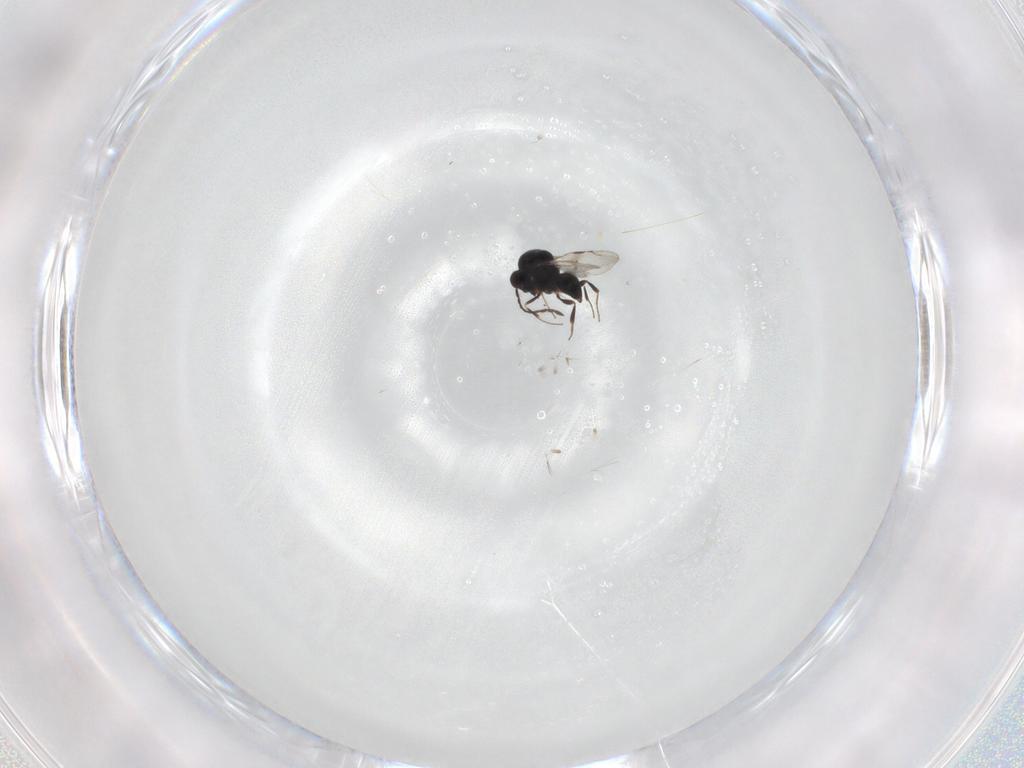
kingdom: Animalia
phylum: Arthropoda
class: Insecta
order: Hymenoptera
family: Ceraphronidae
